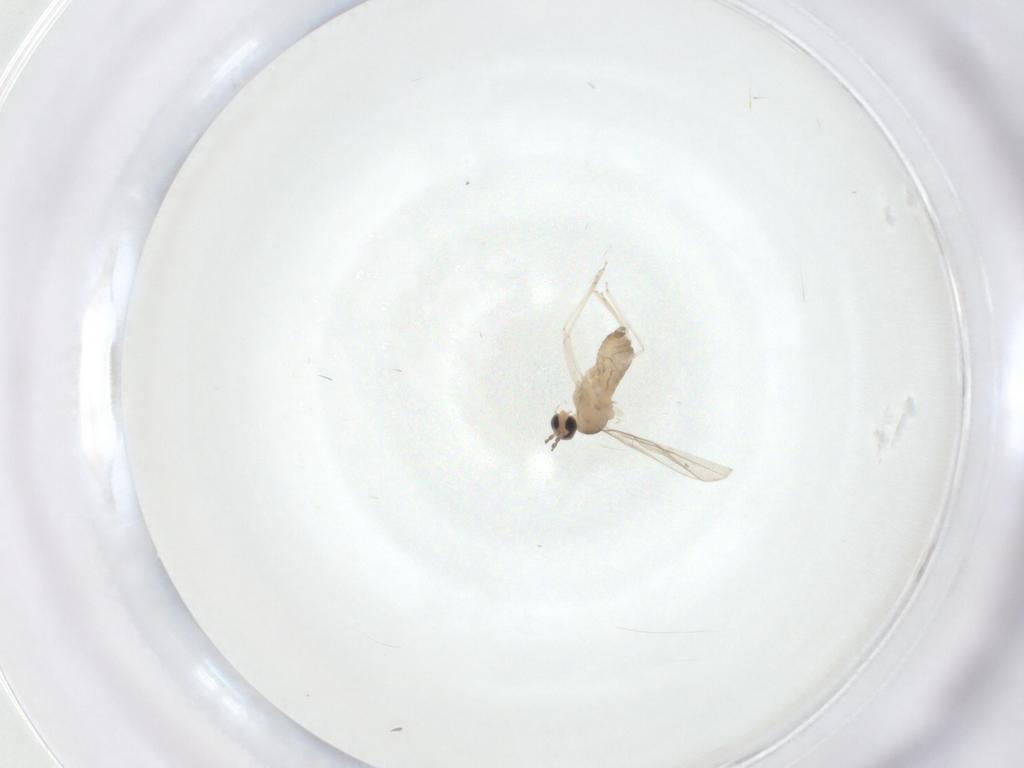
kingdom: Animalia
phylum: Arthropoda
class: Insecta
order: Diptera
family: Cecidomyiidae
